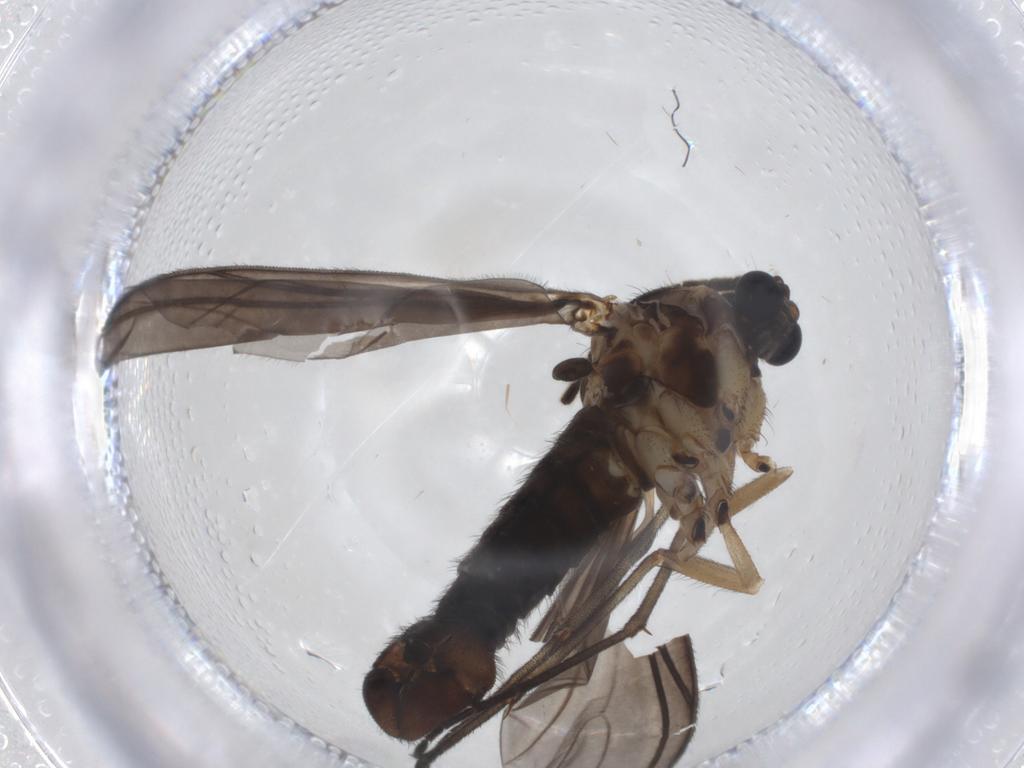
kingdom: Animalia
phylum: Arthropoda
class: Insecta
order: Diptera
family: Sciaridae
